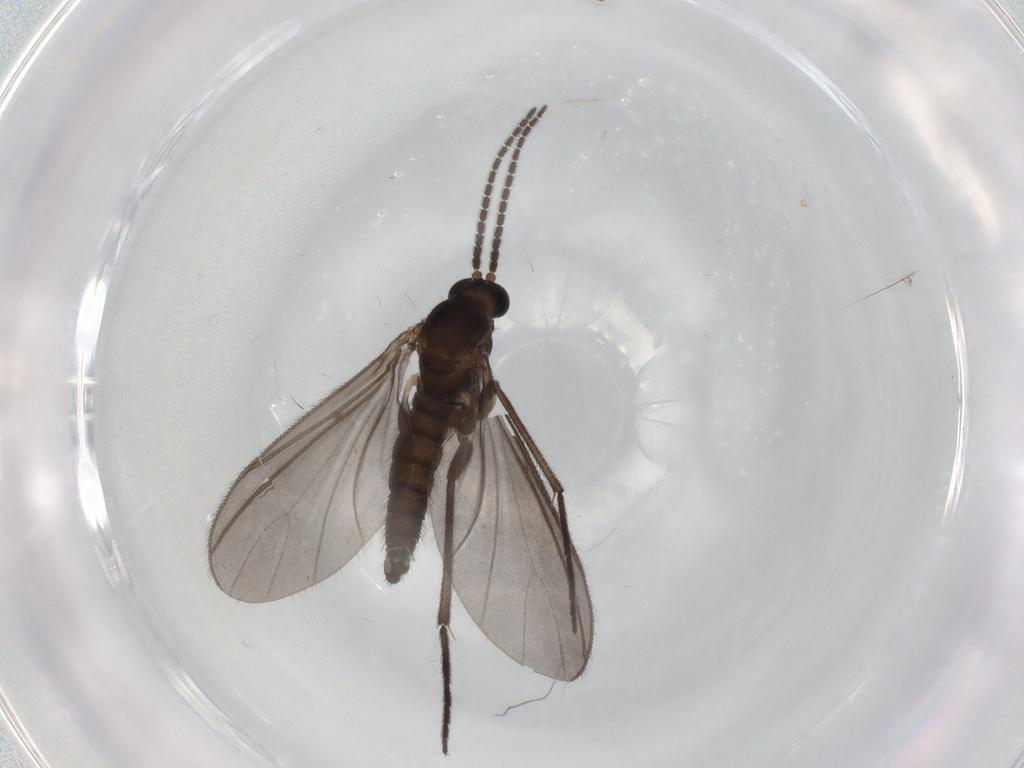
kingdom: Animalia
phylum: Arthropoda
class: Insecta
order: Diptera
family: Sciaridae
